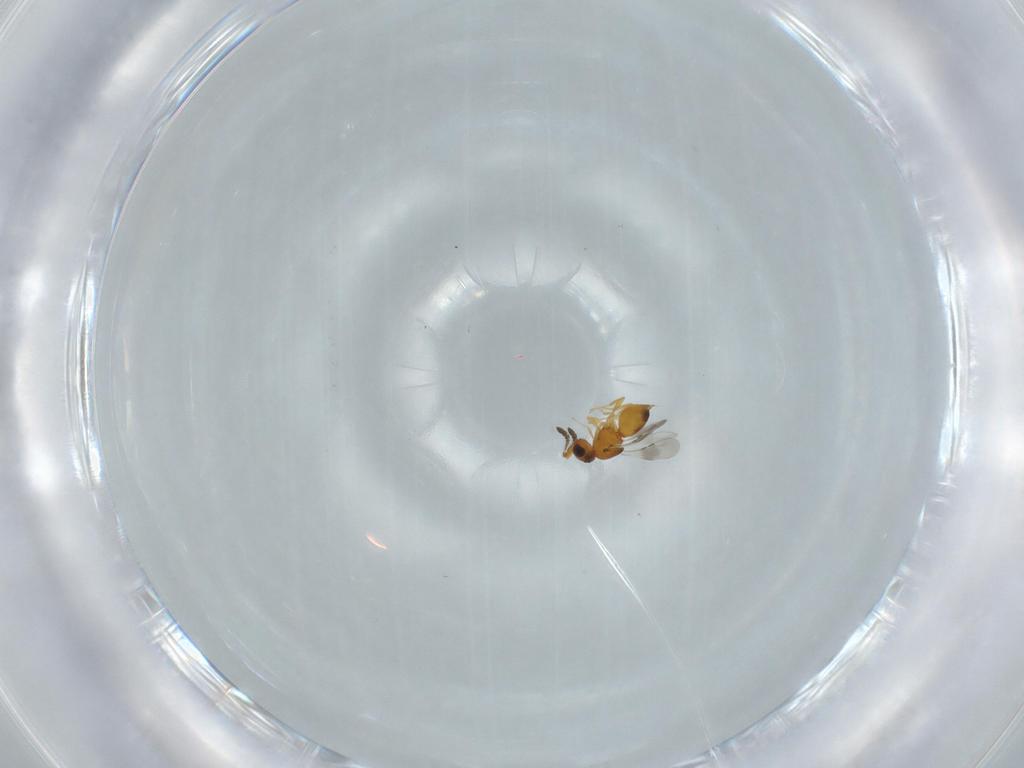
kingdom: Animalia
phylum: Arthropoda
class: Insecta
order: Hymenoptera
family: Ceraphronidae
